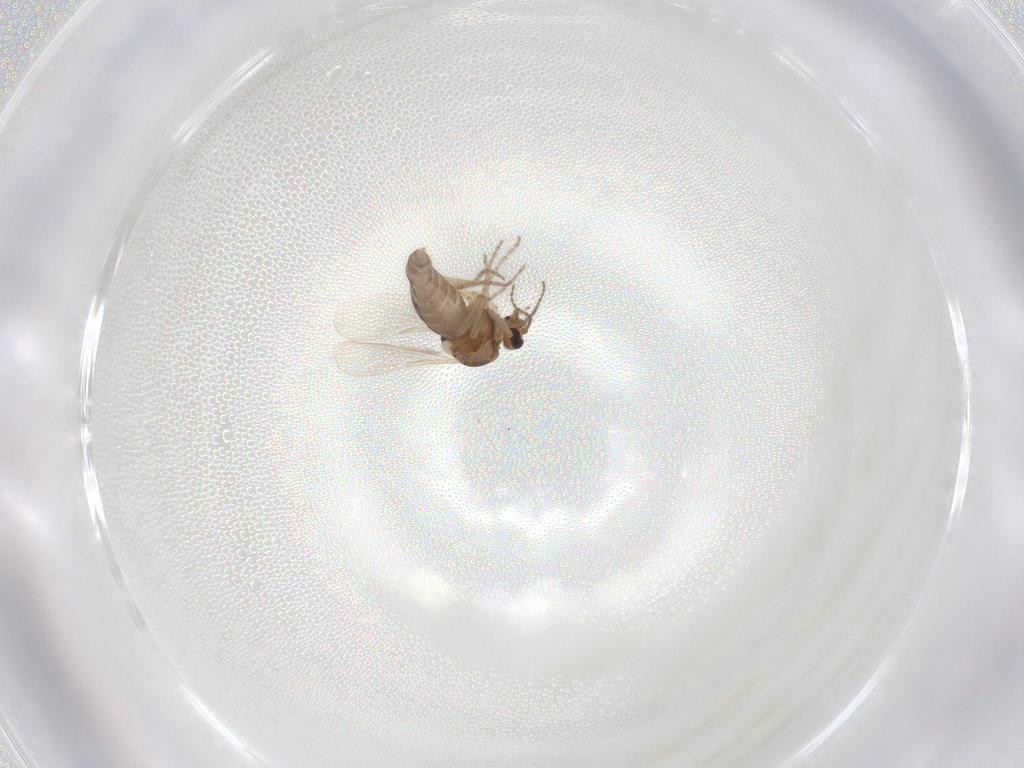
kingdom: Animalia
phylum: Arthropoda
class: Insecta
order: Diptera
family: Ceratopogonidae
